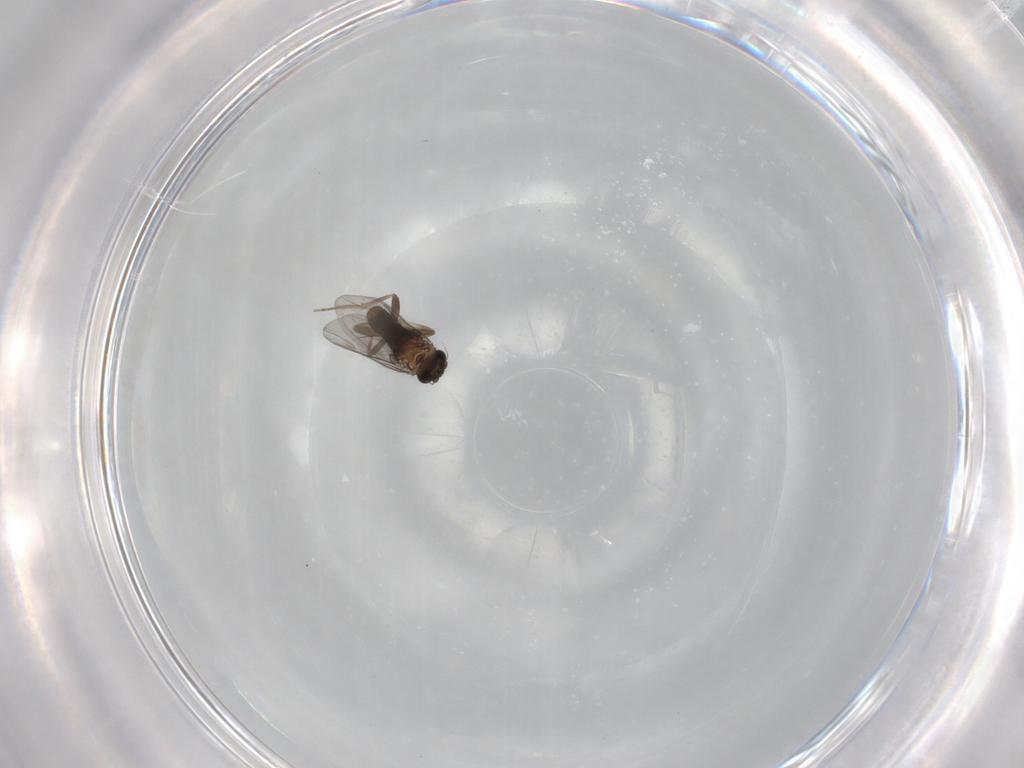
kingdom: Animalia
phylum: Arthropoda
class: Insecta
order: Diptera
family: Phoridae
